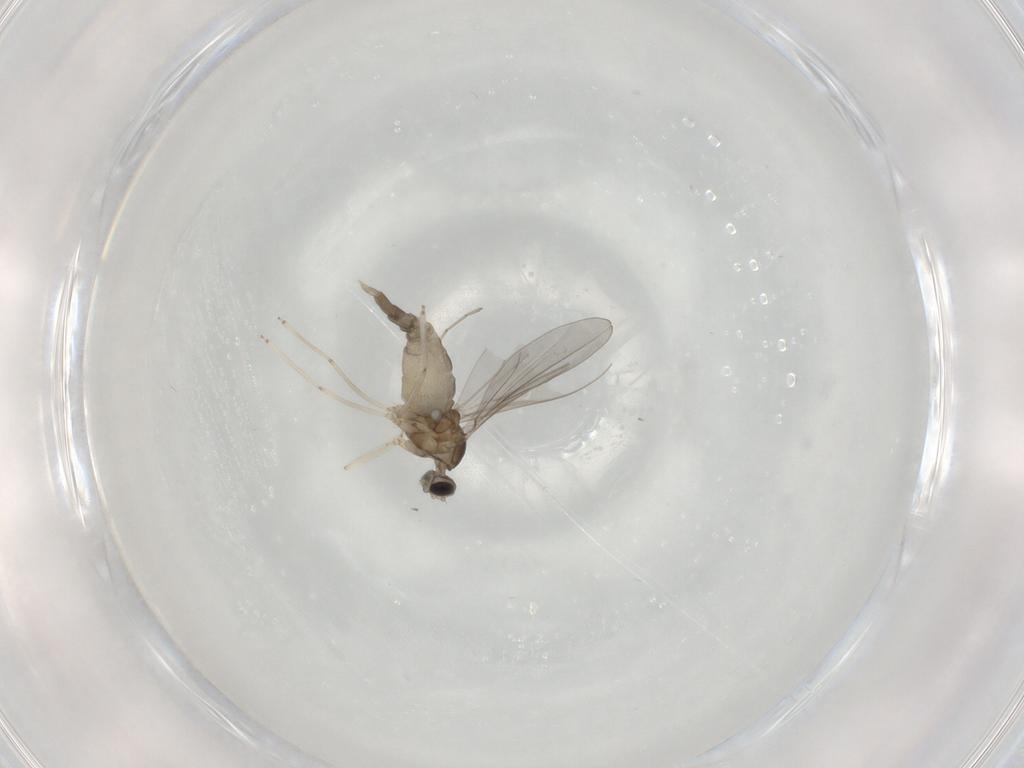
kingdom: Animalia
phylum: Arthropoda
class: Insecta
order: Diptera
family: Cecidomyiidae
